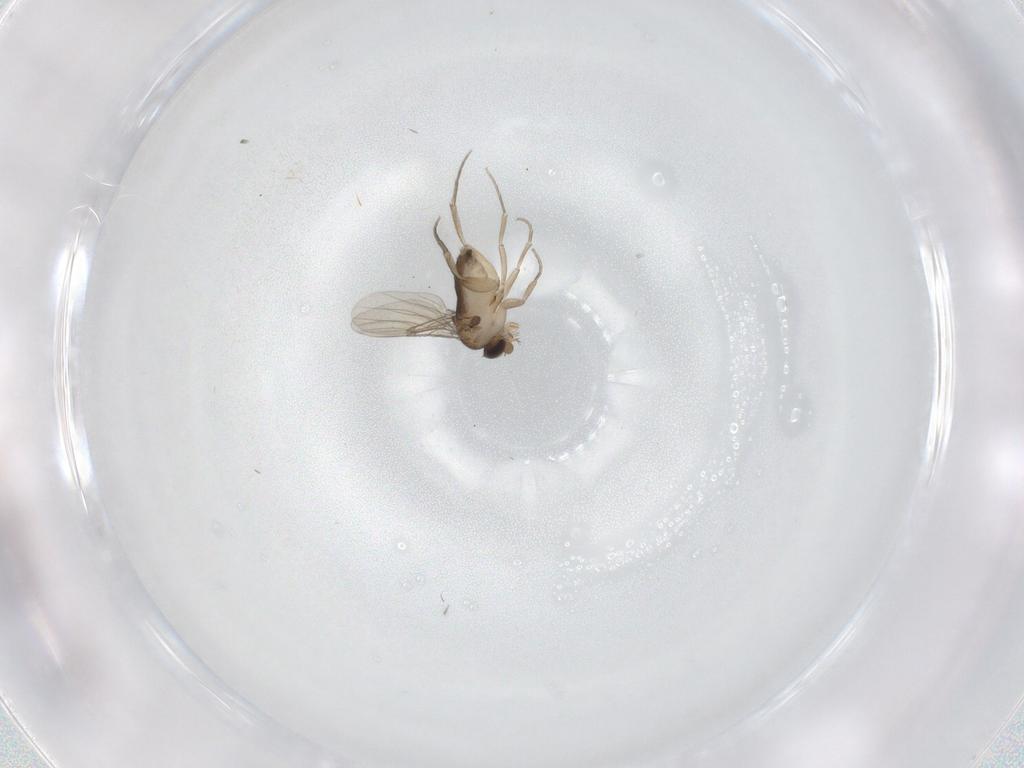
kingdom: Animalia
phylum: Arthropoda
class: Insecta
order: Diptera
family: Phoridae
